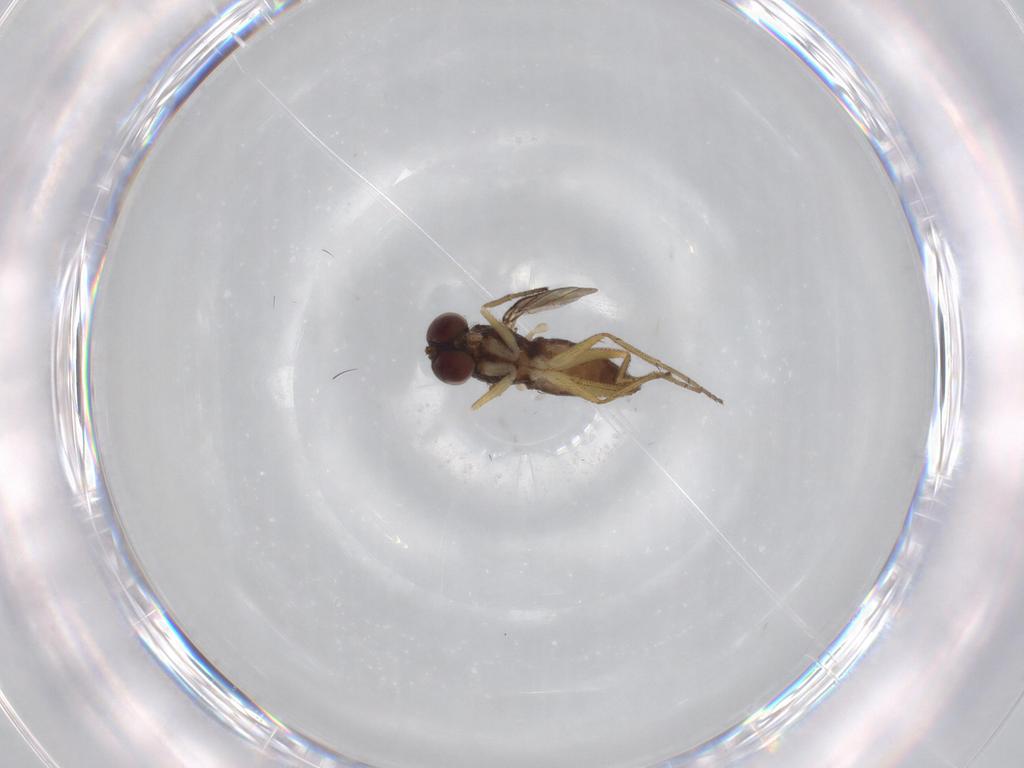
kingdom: Animalia
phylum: Arthropoda
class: Insecta
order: Diptera
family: Dolichopodidae
